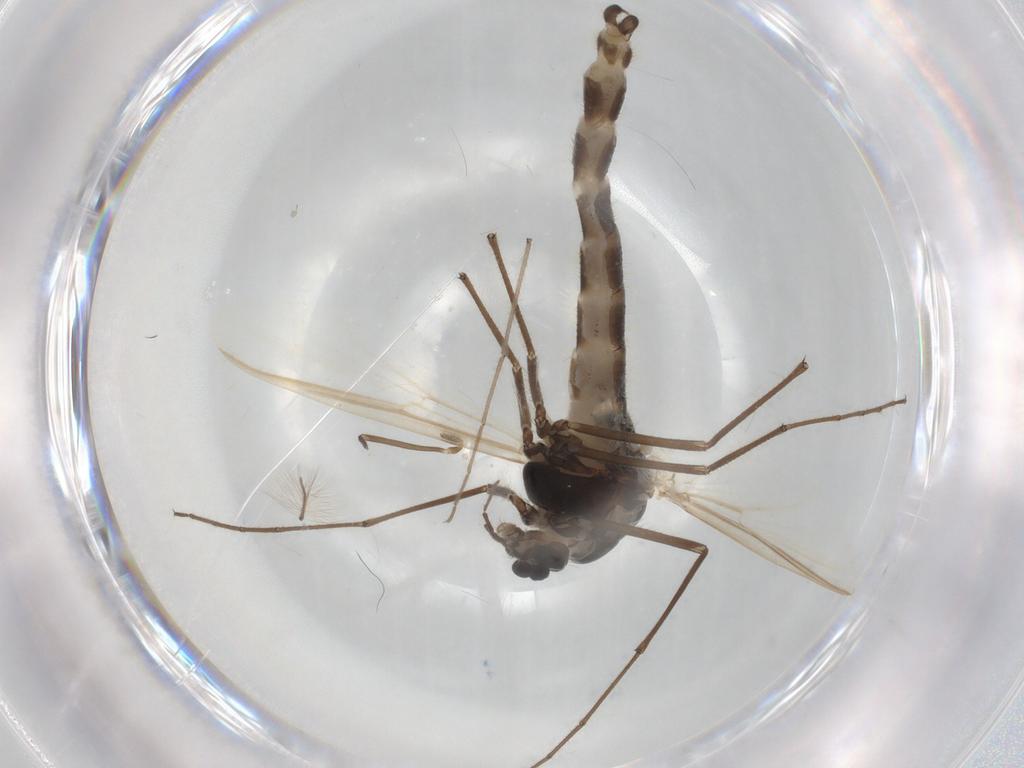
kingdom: Animalia
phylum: Arthropoda
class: Insecta
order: Diptera
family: Chironomidae
